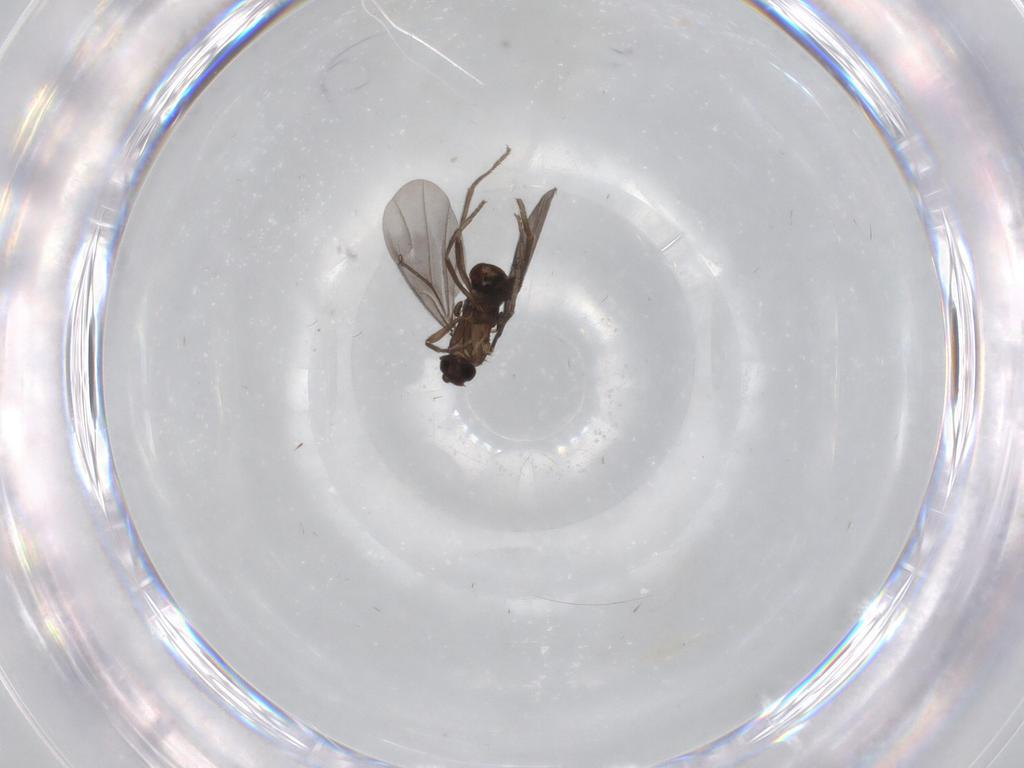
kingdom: Animalia
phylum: Arthropoda
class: Insecta
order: Diptera
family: Phoridae
